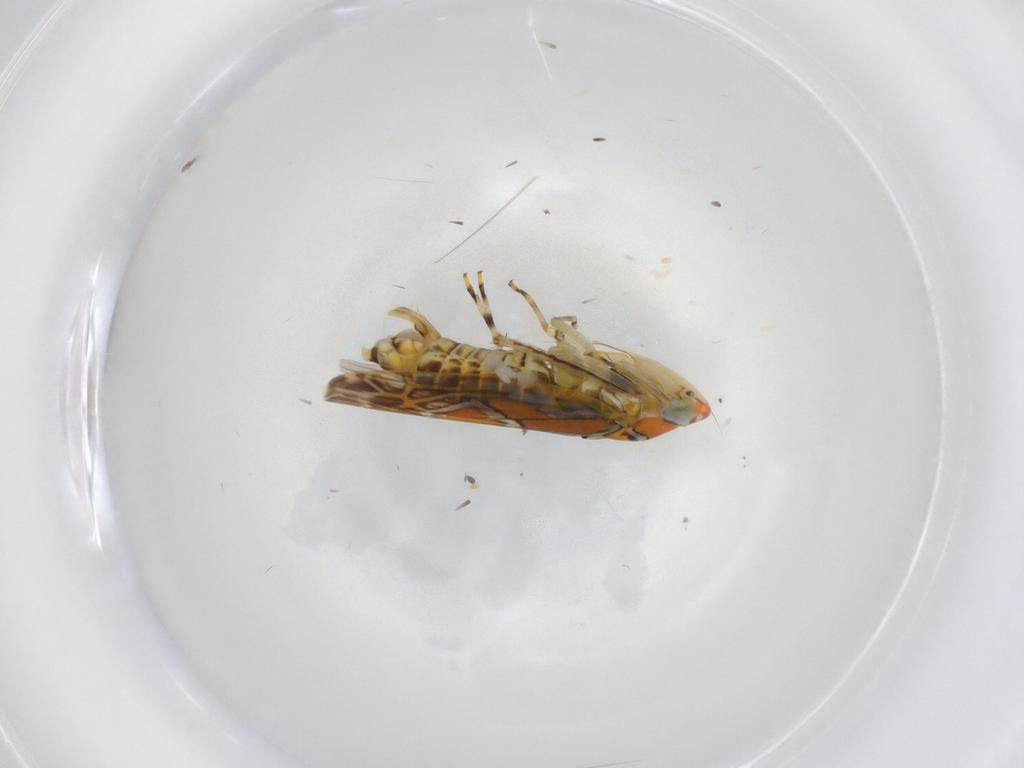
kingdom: Animalia
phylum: Arthropoda
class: Insecta
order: Hemiptera
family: Cicadellidae
